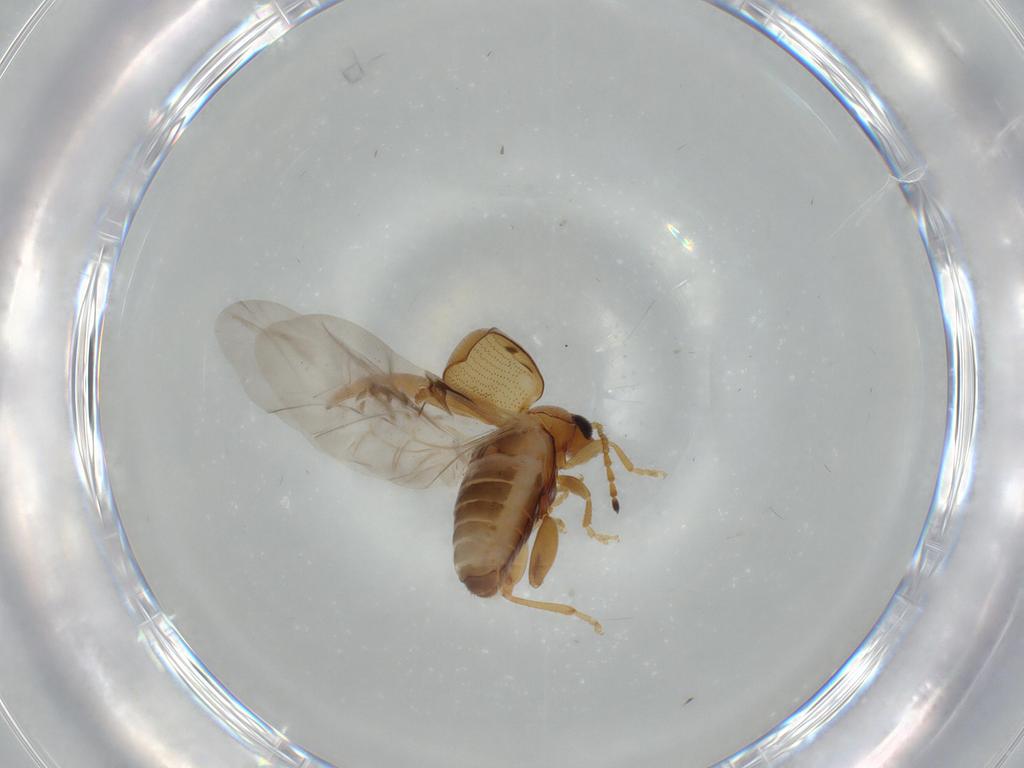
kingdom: Animalia
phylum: Arthropoda
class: Insecta
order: Coleoptera
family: Chrysomelidae
